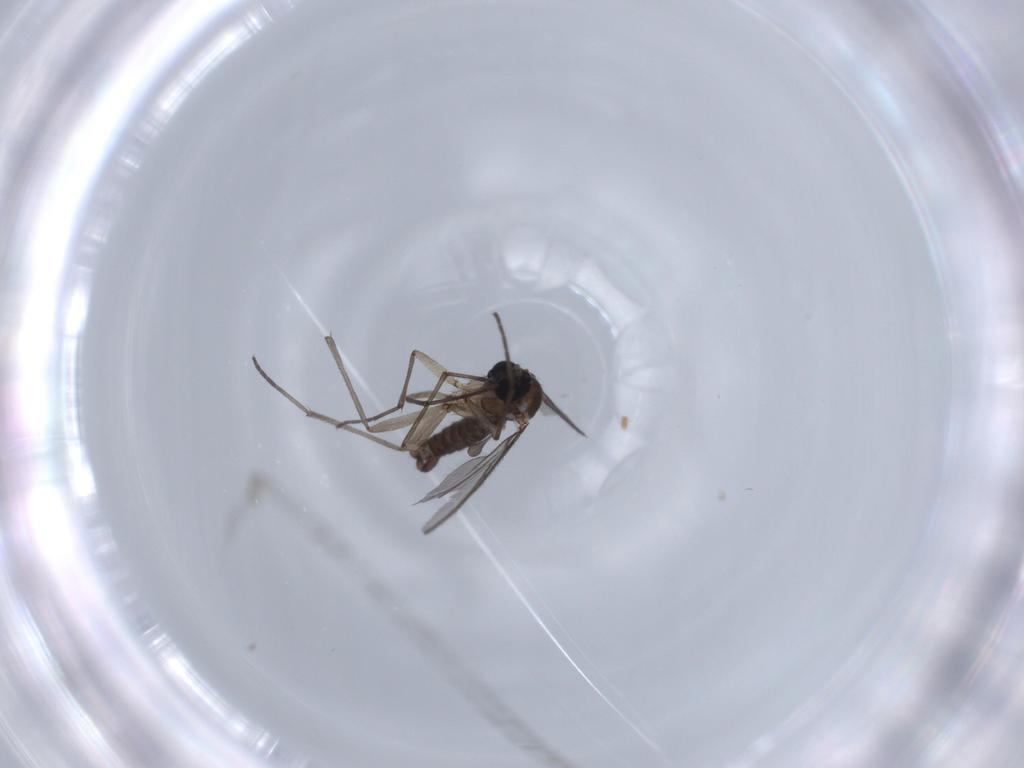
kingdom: Animalia
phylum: Arthropoda
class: Insecta
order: Diptera
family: Sciaridae
